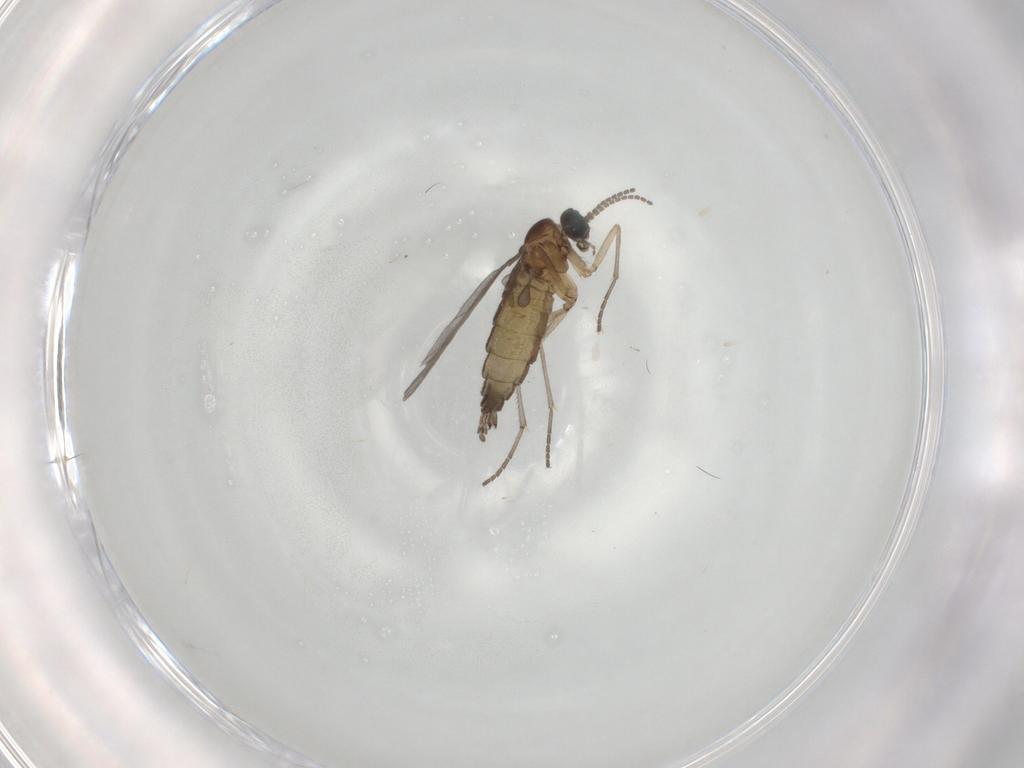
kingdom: Animalia
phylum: Arthropoda
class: Insecta
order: Diptera
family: Sciaridae
